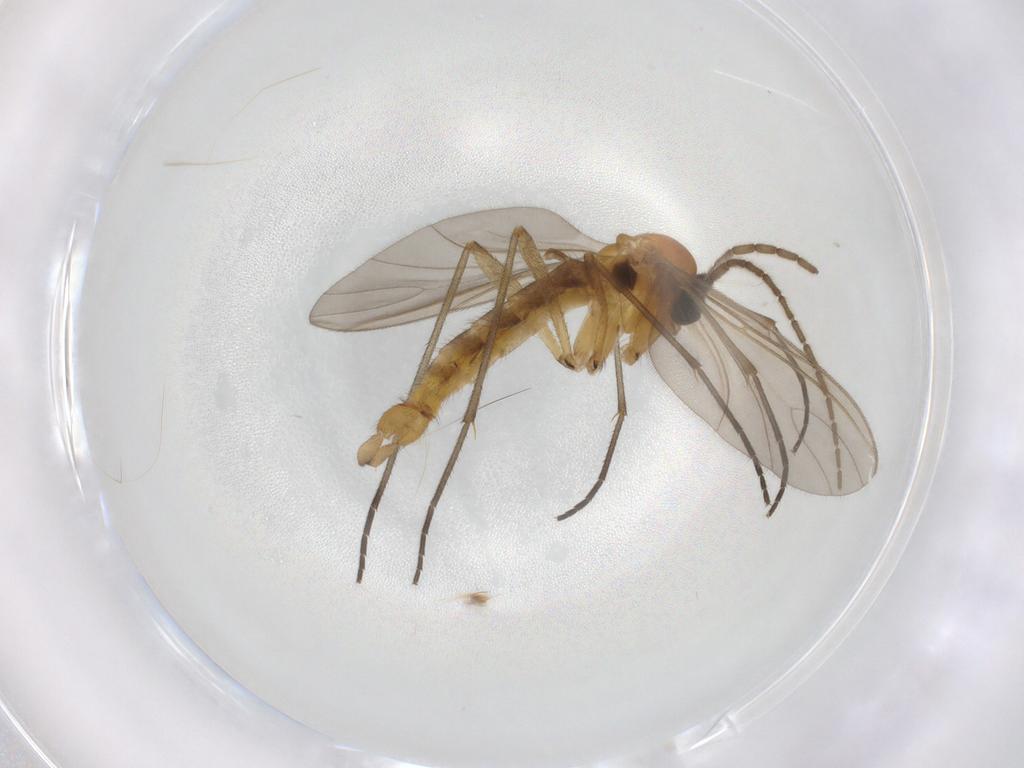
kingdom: Animalia
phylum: Arthropoda
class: Insecta
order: Diptera
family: Sciaridae
